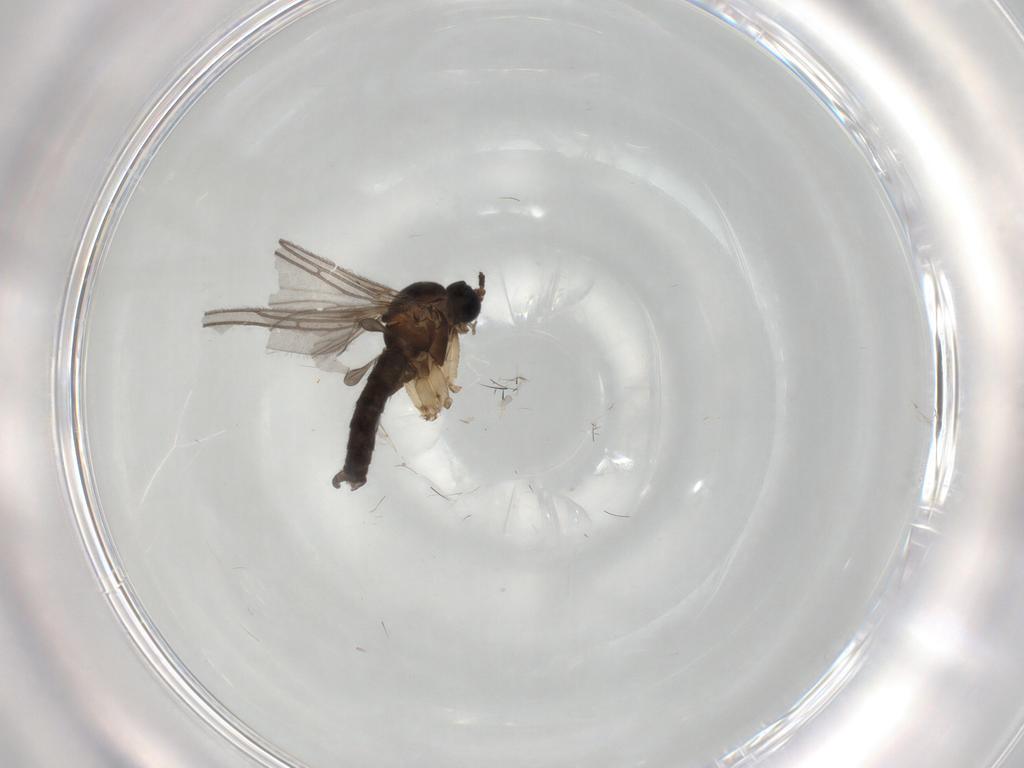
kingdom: Animalia
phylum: Arthropoda
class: Insecta
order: Diptera
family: Sciaridae
